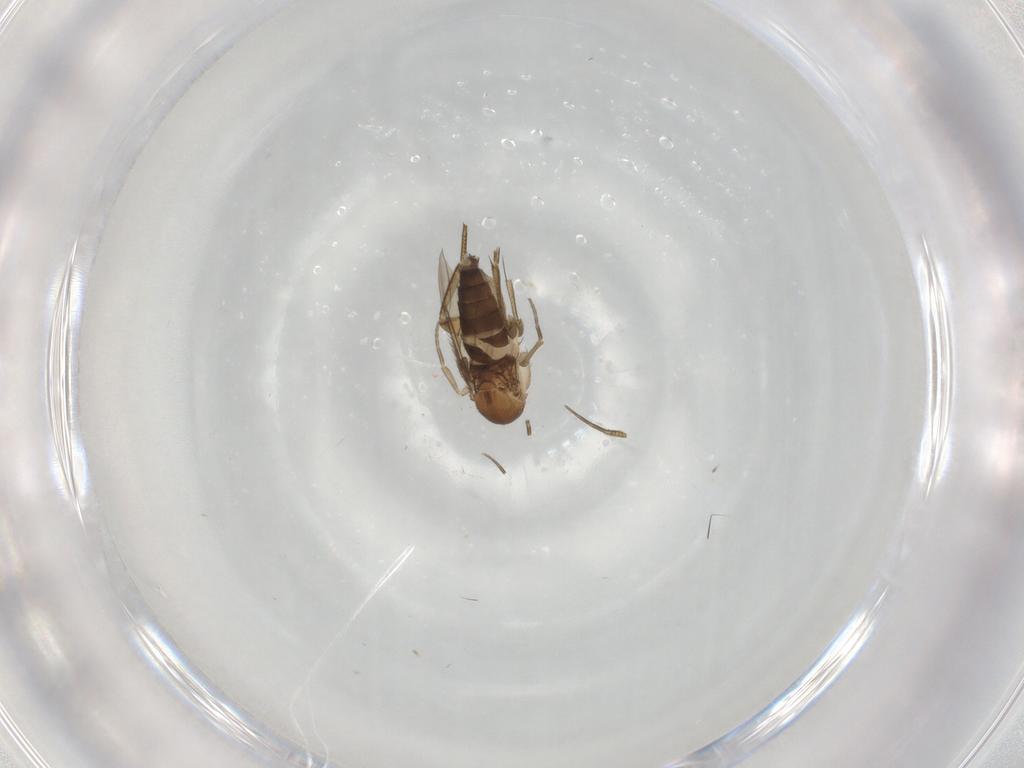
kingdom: Animalia
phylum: Arthropoda
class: Insecta
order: Diptera
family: Phoridae
